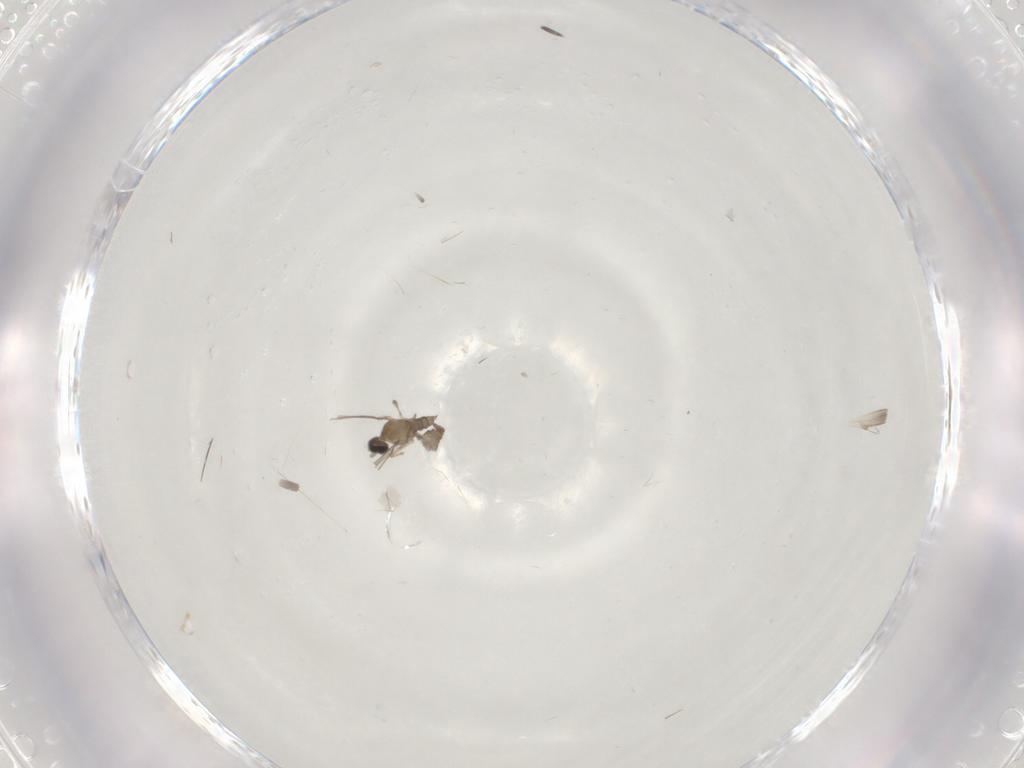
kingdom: Animalia
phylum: Arthropoda
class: Insecta
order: Diptera
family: Cecidomyiidae
